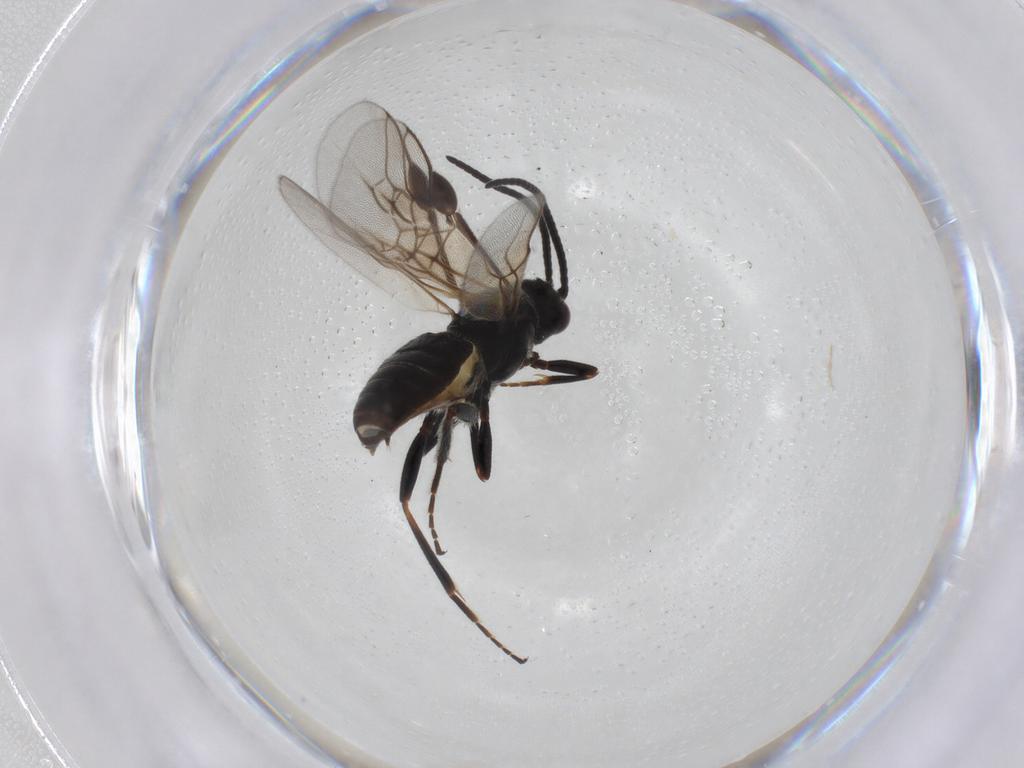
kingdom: Animalia
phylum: Arthropoda
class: Insecta
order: Hymenoptera
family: Braconidae
